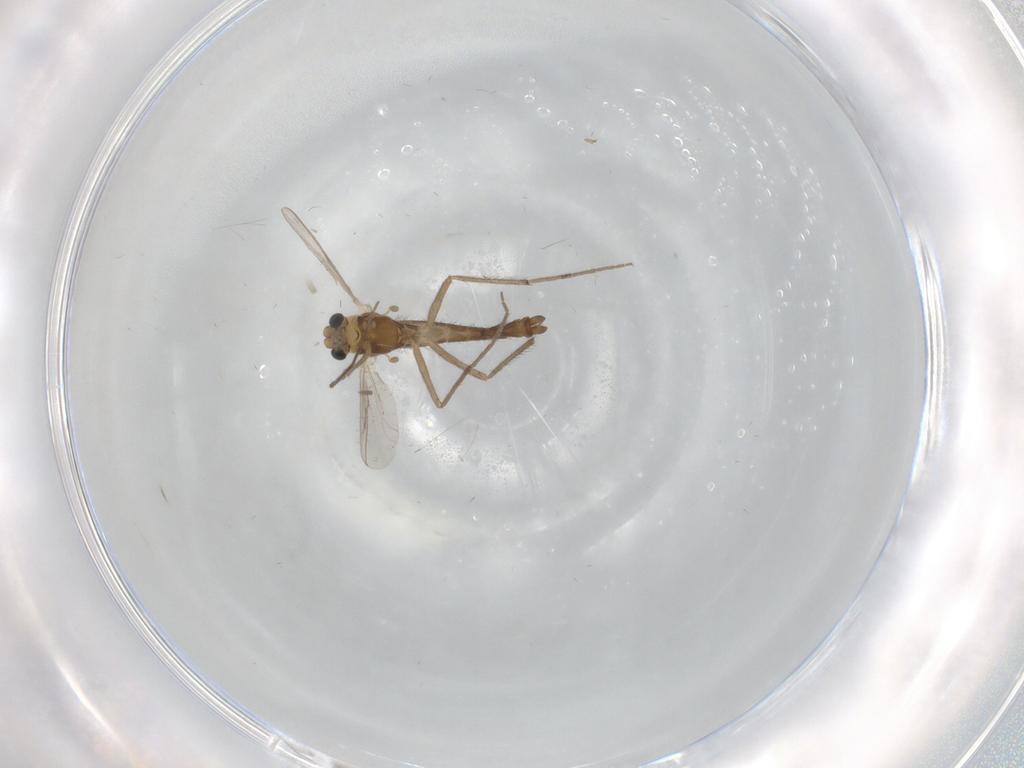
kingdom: Animalia
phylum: Arthropoda
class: Insecta
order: Diptera
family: Chironomidae
